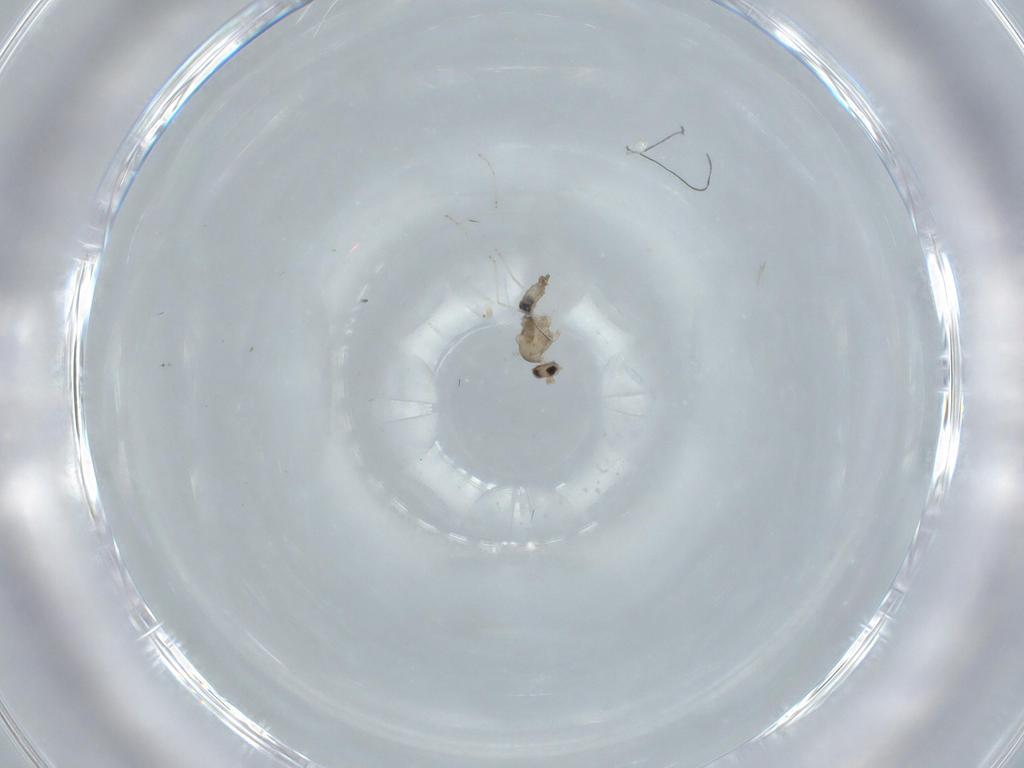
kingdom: Animalia
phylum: Arthropoda
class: Insecta
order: Diptera
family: Cecidomyiidae
